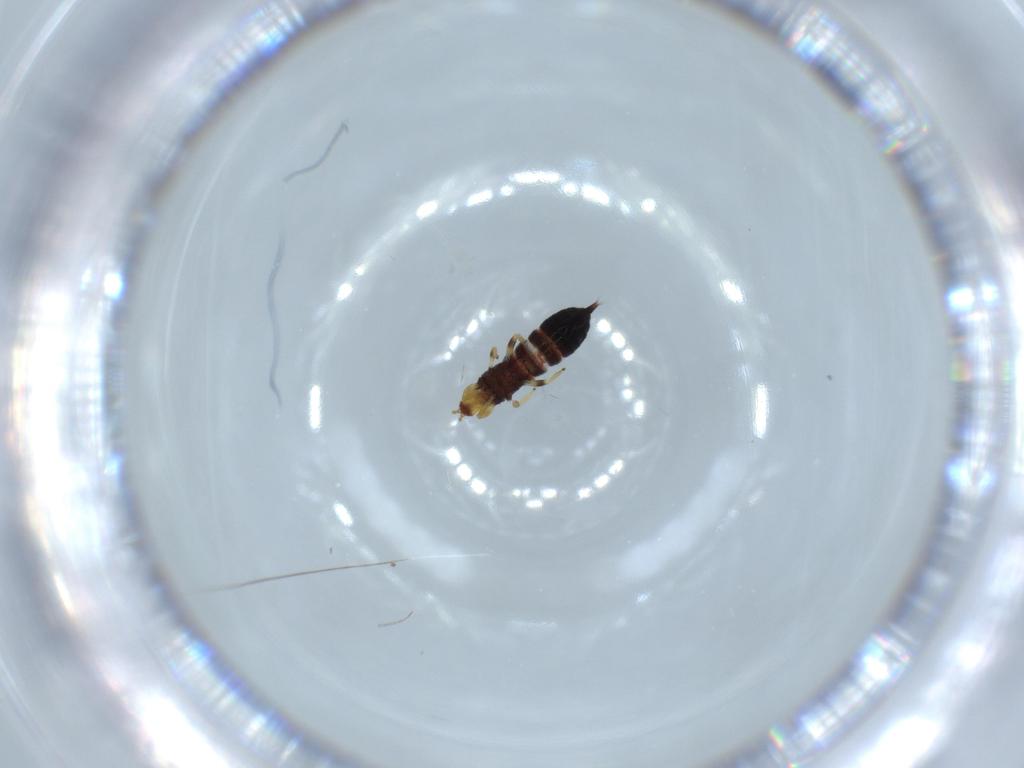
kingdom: Animalia
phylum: Arthropoda
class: Insecta
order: Thysanoptera
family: Phlaeothripidae
